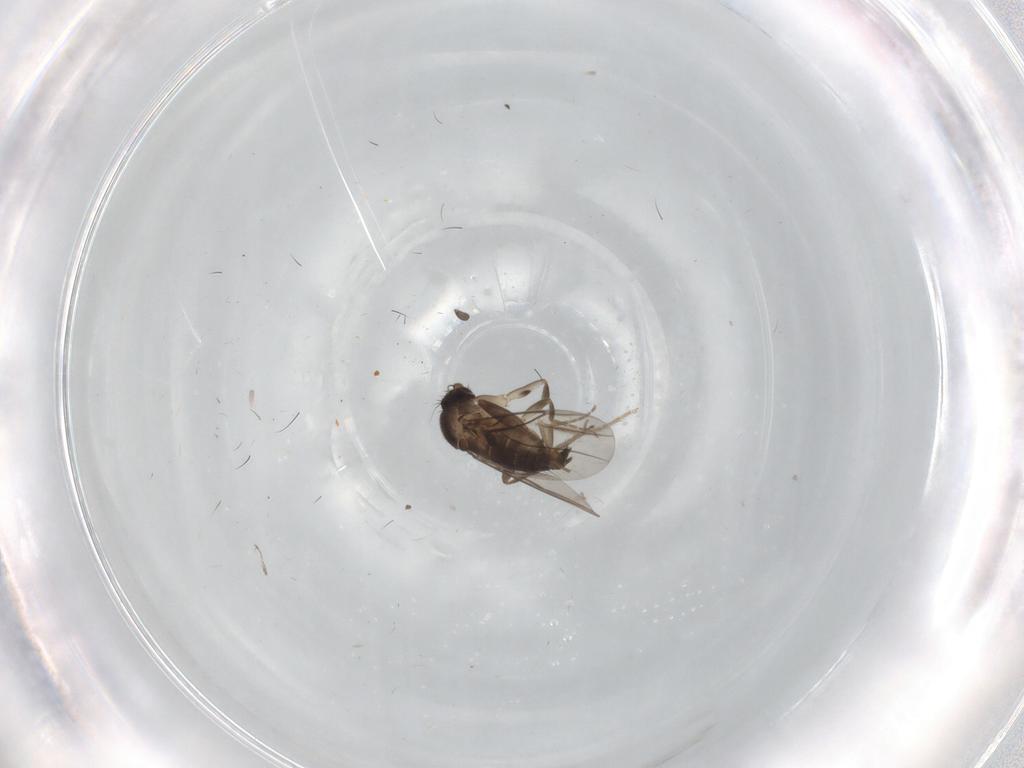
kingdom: Animalia
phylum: Arthropoda
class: Insecta
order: Diptera
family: Phoridae
